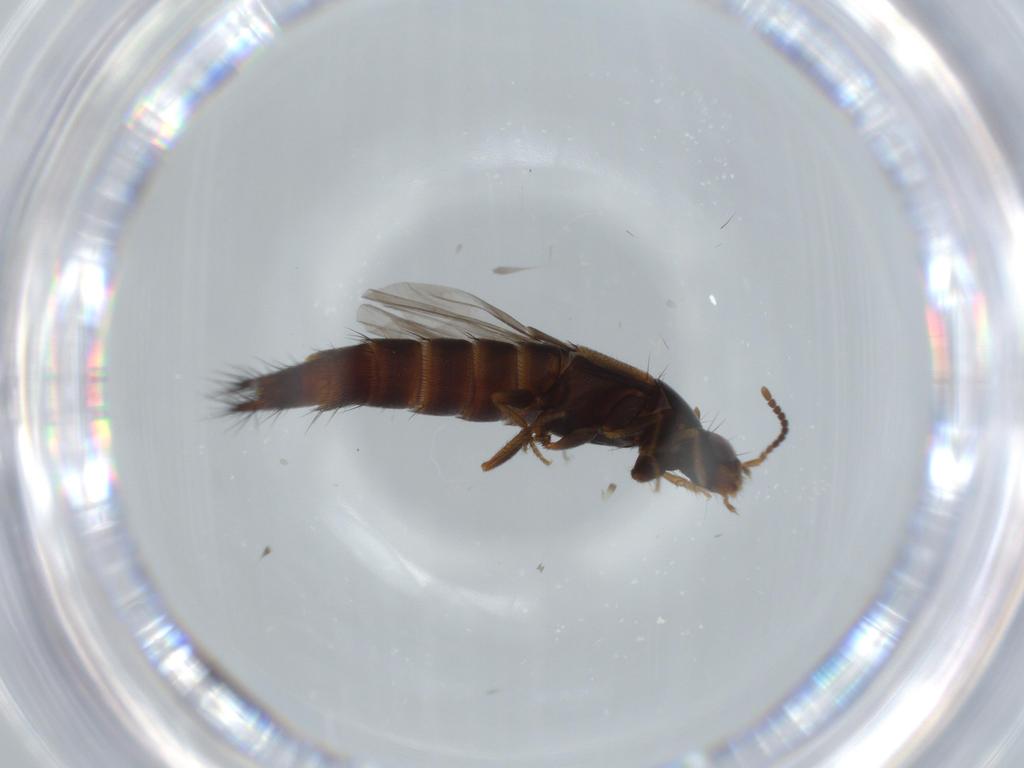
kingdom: Animalia
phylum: Arthropoda
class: Insecta
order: Coleoptera
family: Staphylinidae
